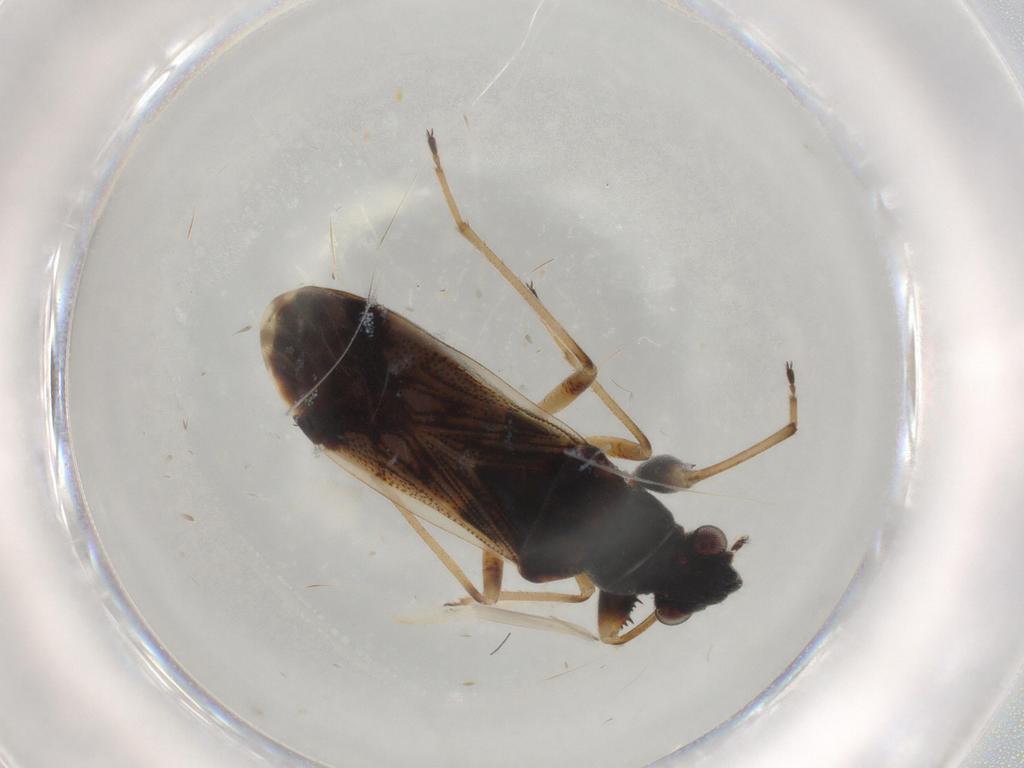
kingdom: Animalia
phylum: Arthropoda
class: Insecta
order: Hemiptera
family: Rhyparochromidae
